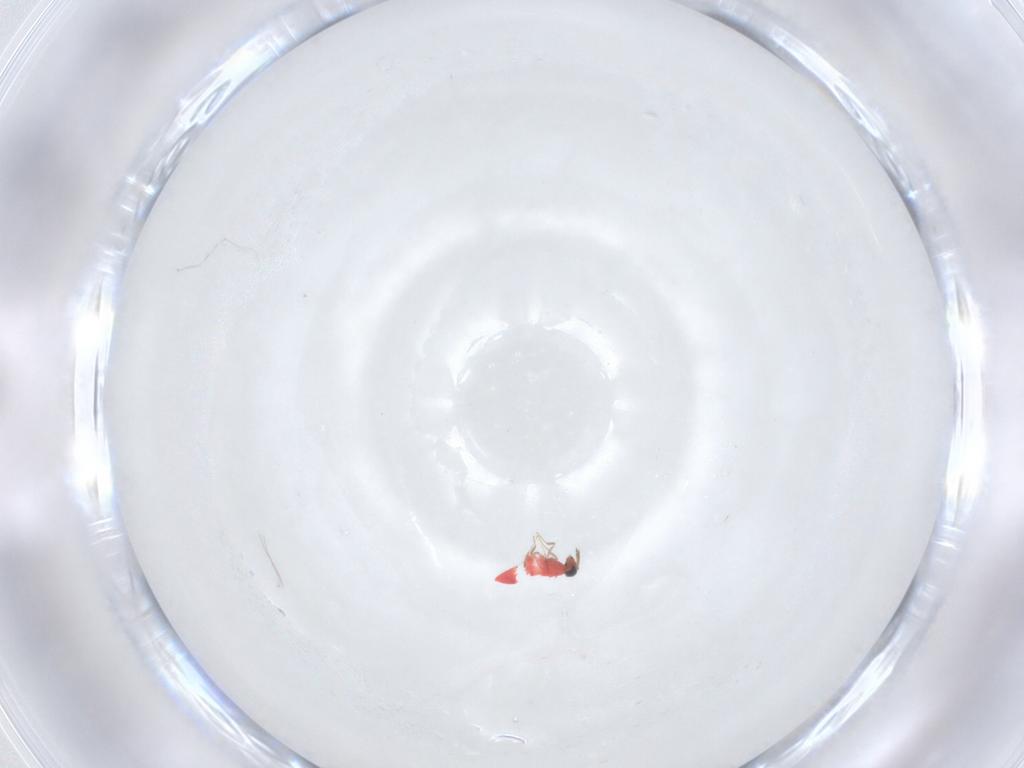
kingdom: Animalia
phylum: Arthropoda
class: Insecta
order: Hymenoptera
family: Trichogrammatidae
